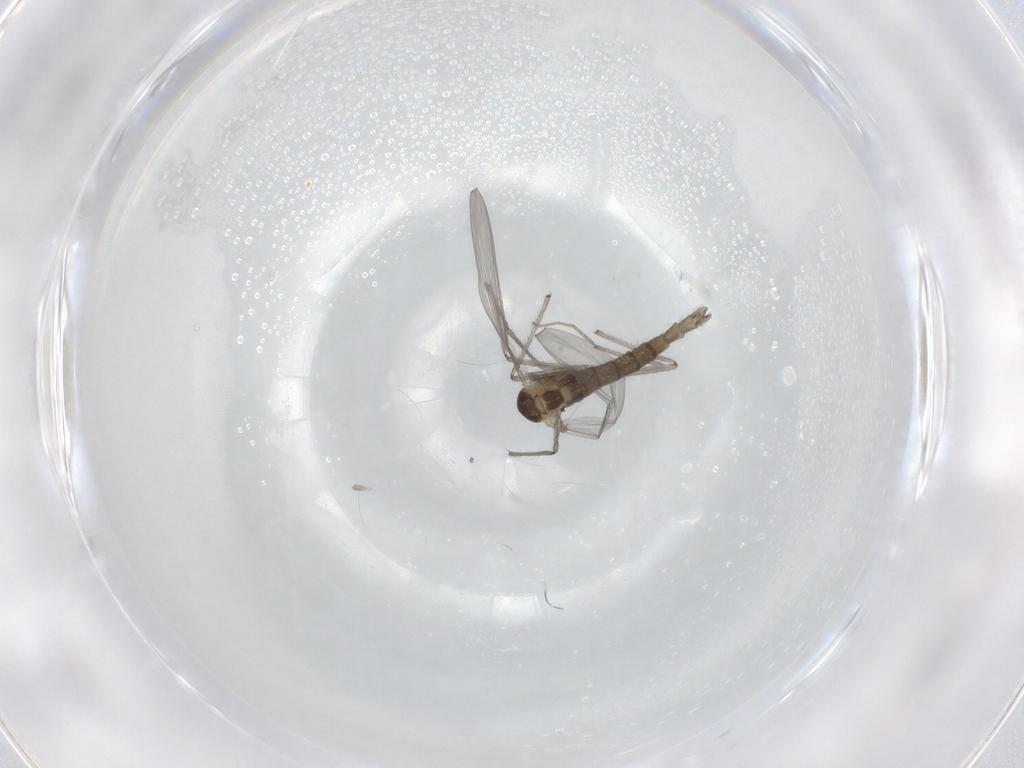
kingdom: Animalia
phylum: Arthropoda
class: Insecta
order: Diptera
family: Chironomidae
